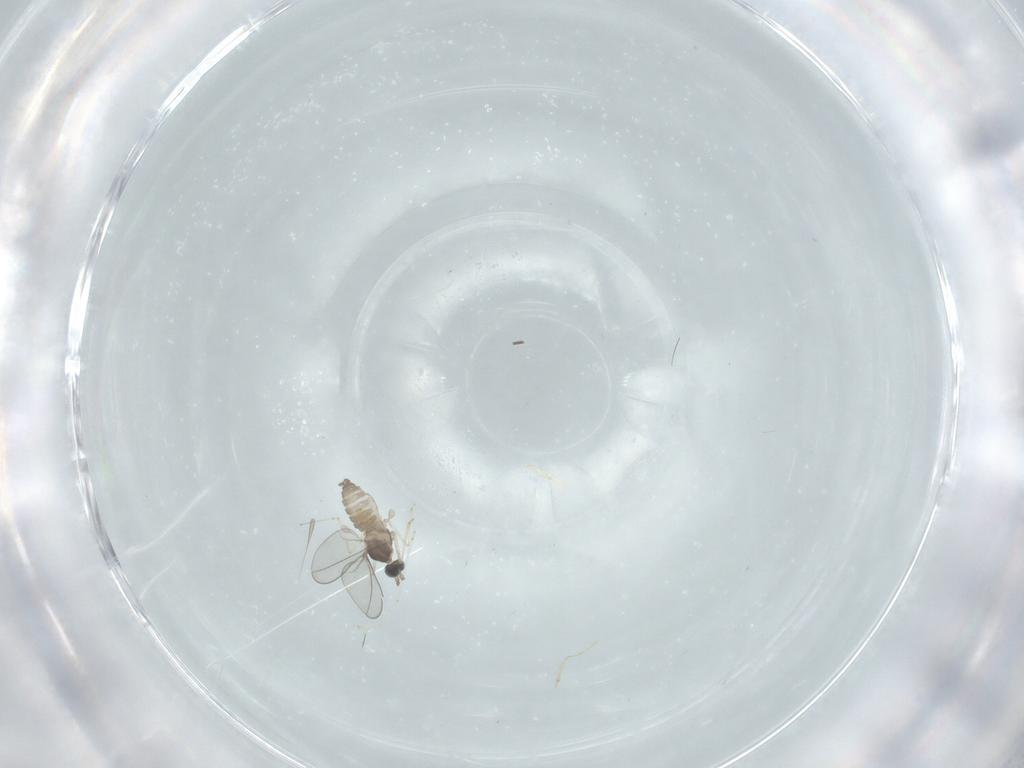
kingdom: Animalia
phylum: Arthropoda
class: Insecta
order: Diptera
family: Cecidomyiidae
